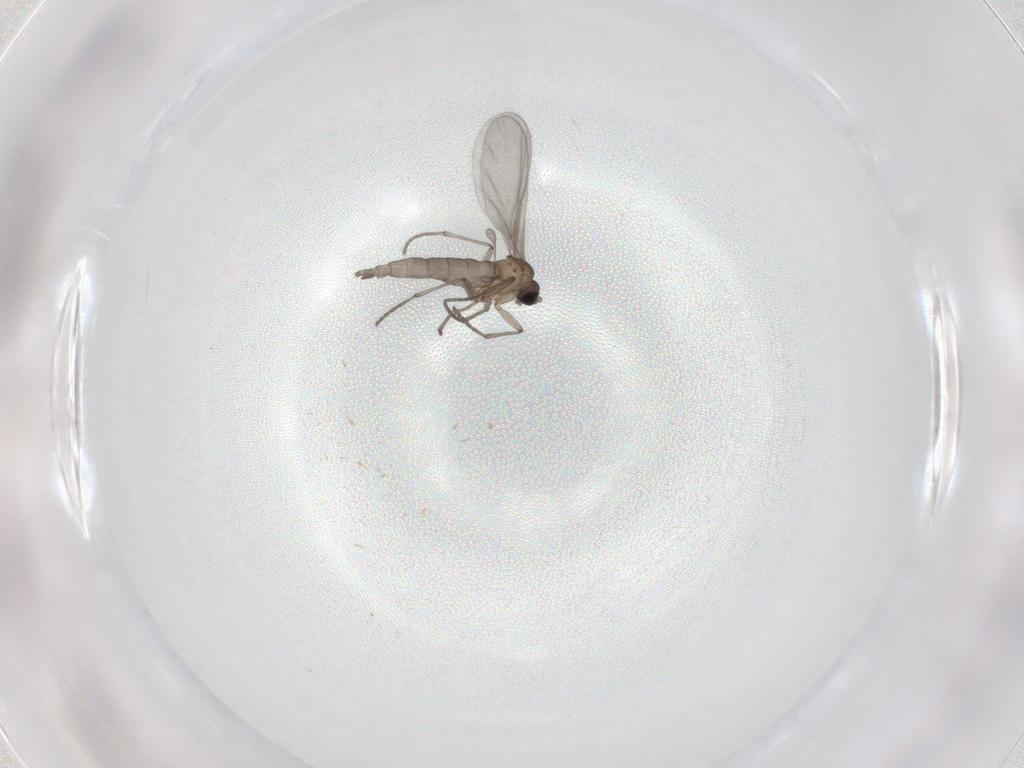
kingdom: Animalia
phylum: Arthropoda
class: Insecta
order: Diptera
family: Sciaridae
